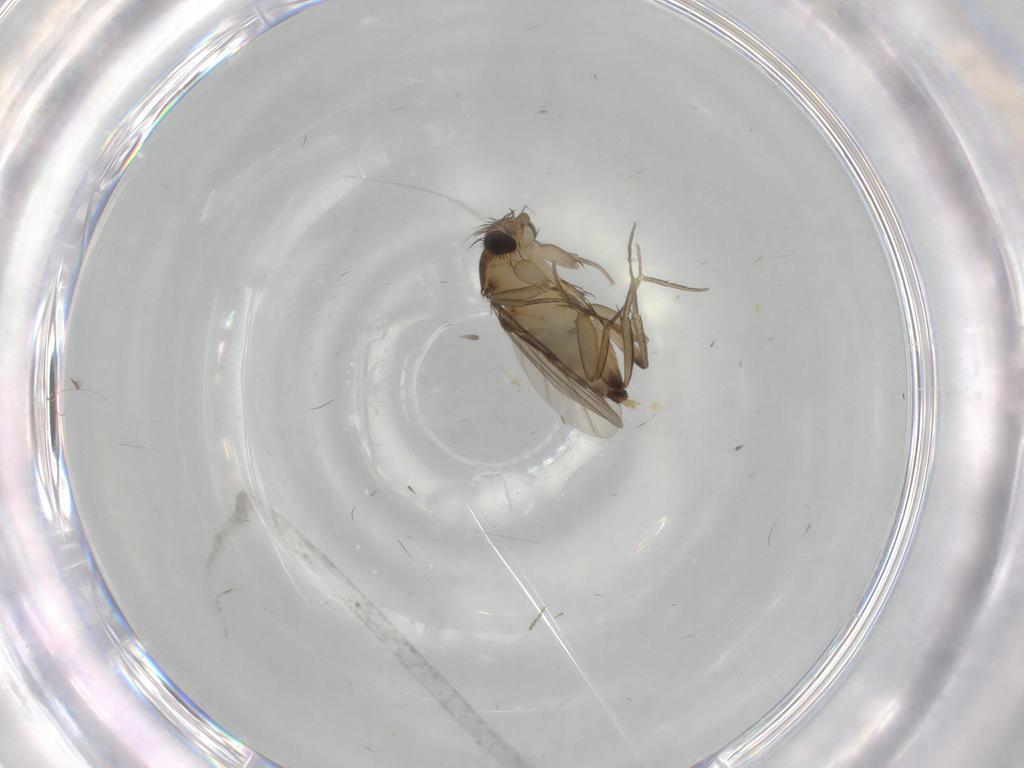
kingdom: Animalia
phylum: Arthropoda
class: Insecta
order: Diptera
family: Cecidomyiidae
